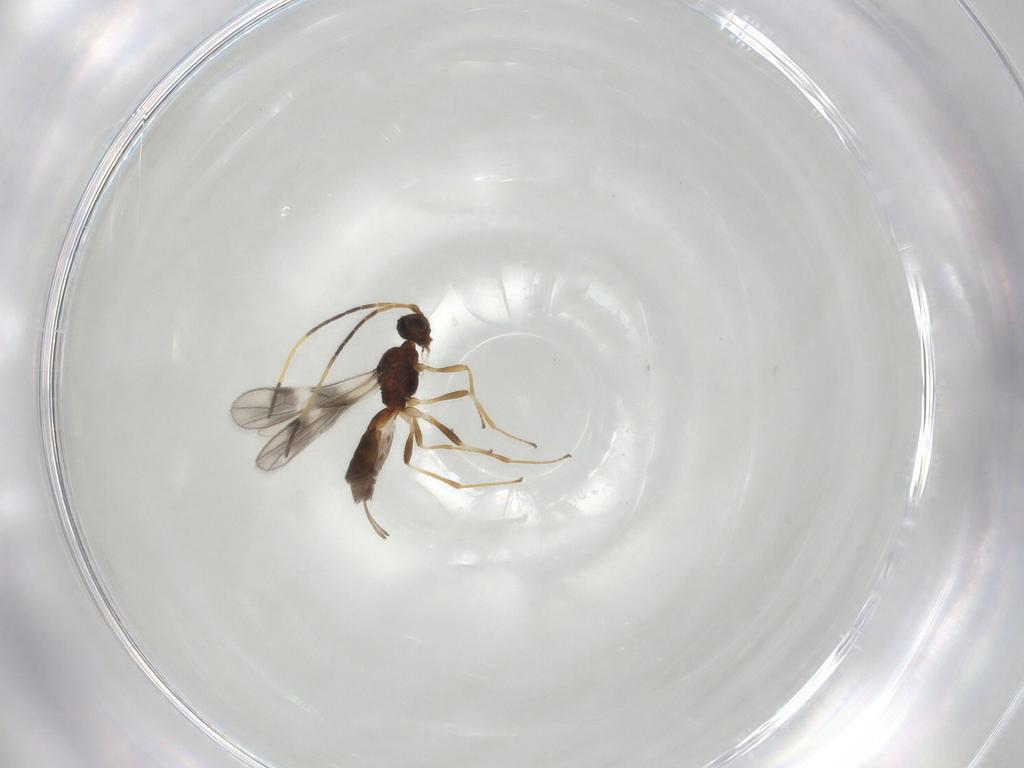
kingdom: Animalia
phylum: Arthropoda
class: Insecta
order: Hymenoptera
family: Braconidae
